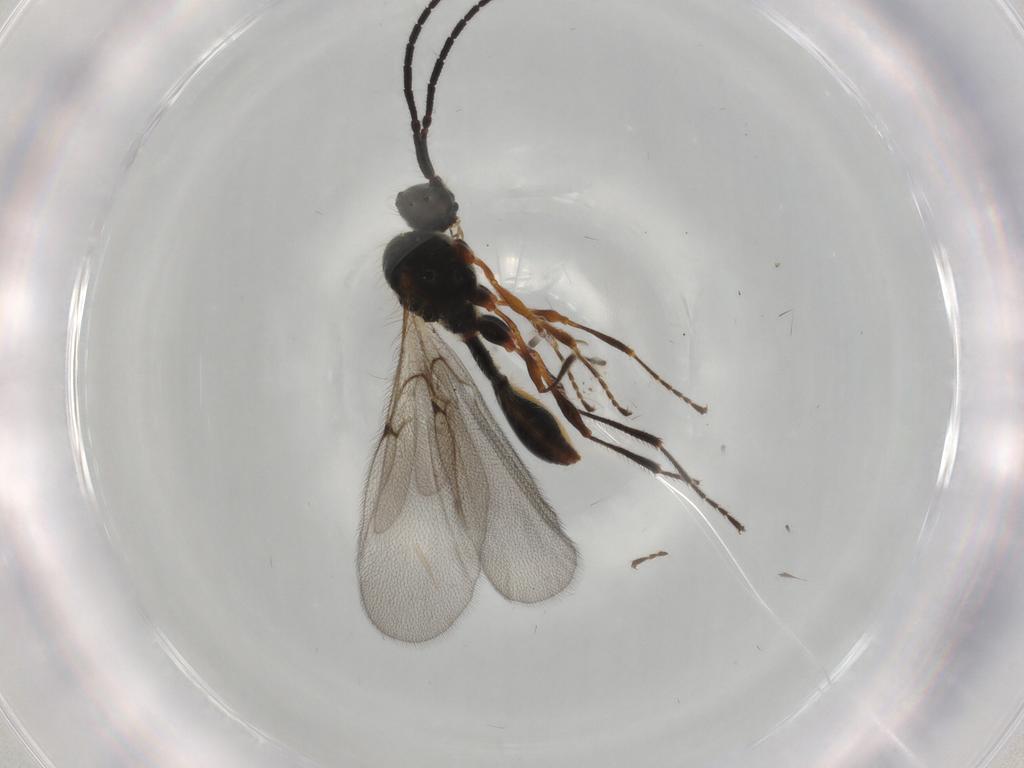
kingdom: Animalia
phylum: Arthropoda
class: Insecta
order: Hymenoptera
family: Diapriidae
